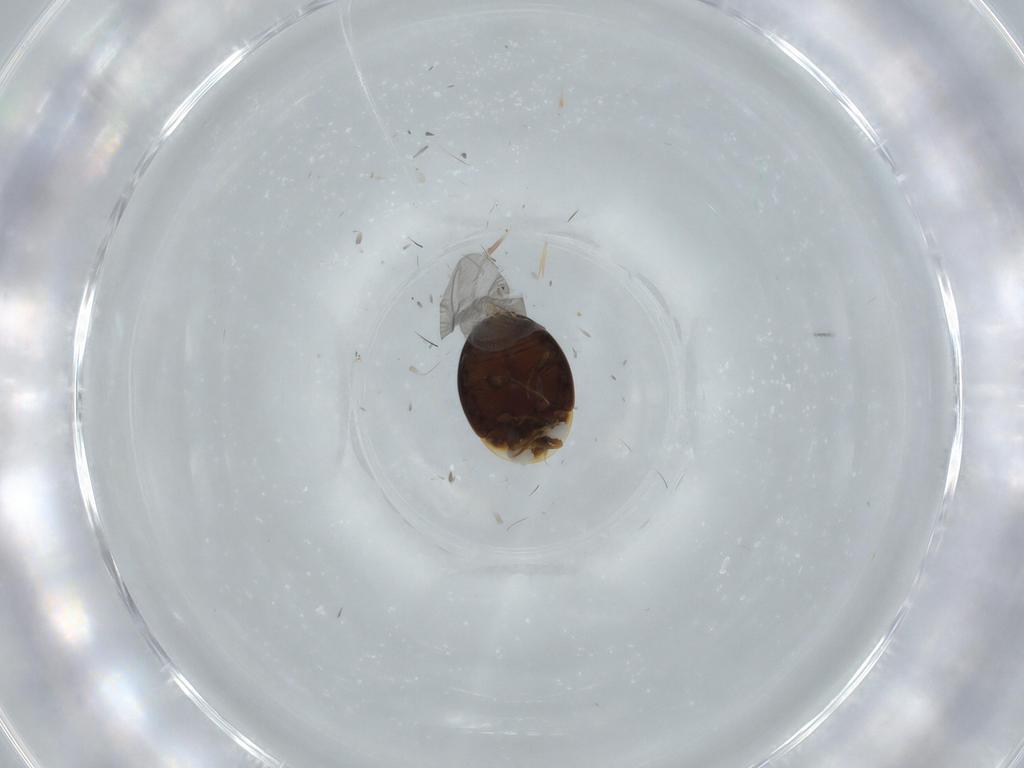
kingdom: Animalia
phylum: Arthropoda
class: Insecta
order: Coleoptera
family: Corylophidae
